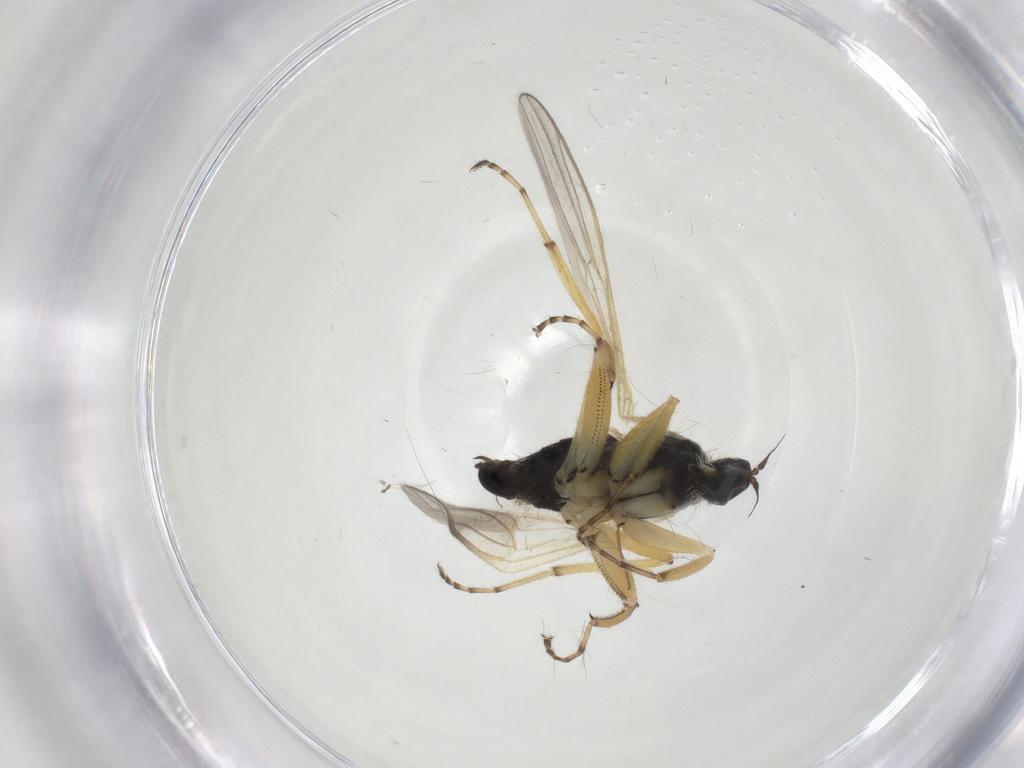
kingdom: Animalia
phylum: Arthropoda
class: Insecta
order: Diptera
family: Hybotidae
